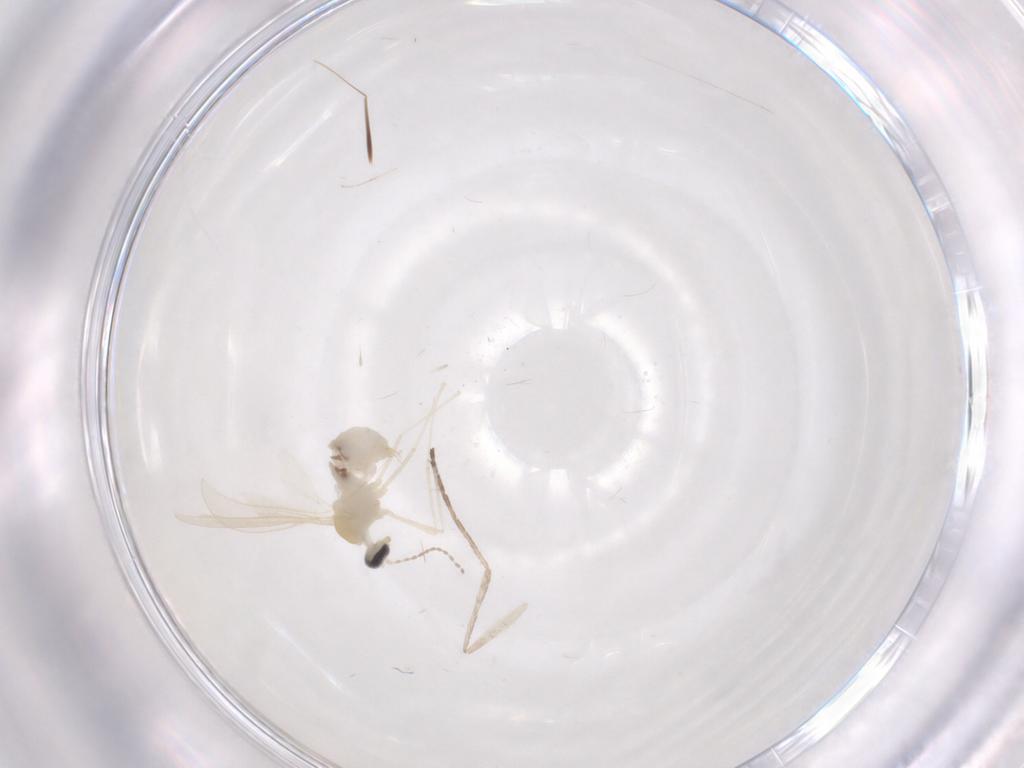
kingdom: Animalia
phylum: Arthropoda
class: Insecta
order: Diptera
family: Cecidomyiidae
